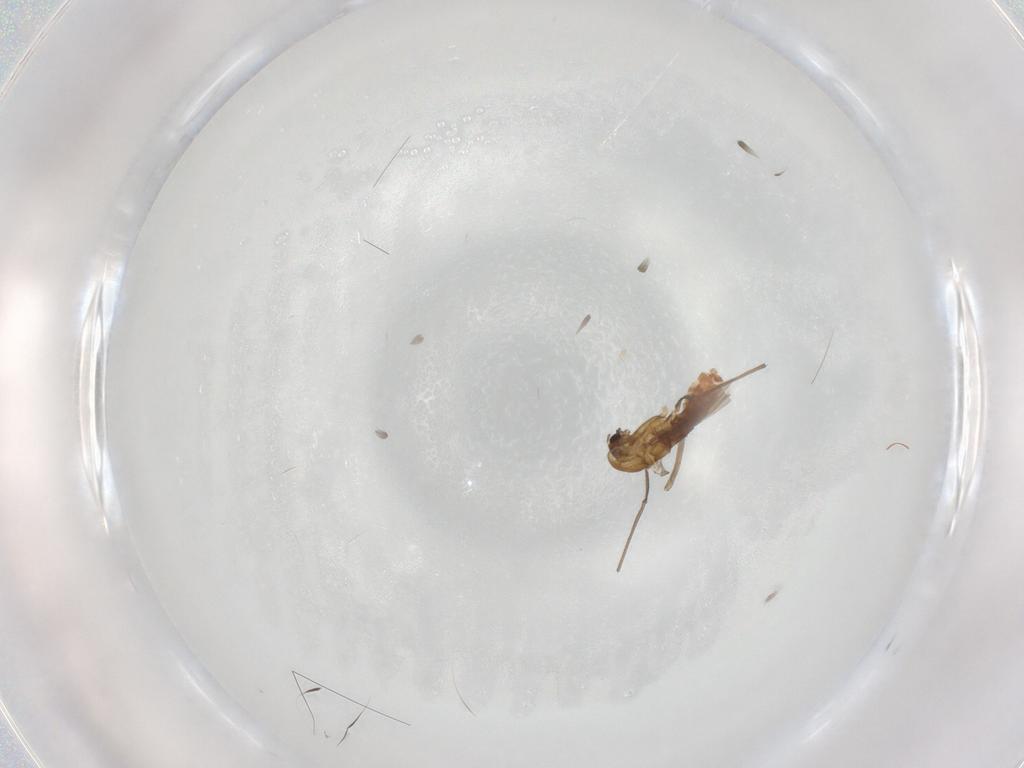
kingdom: Animalia
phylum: Arthropoda
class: Insecta
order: Diptera
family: Chironomidae
